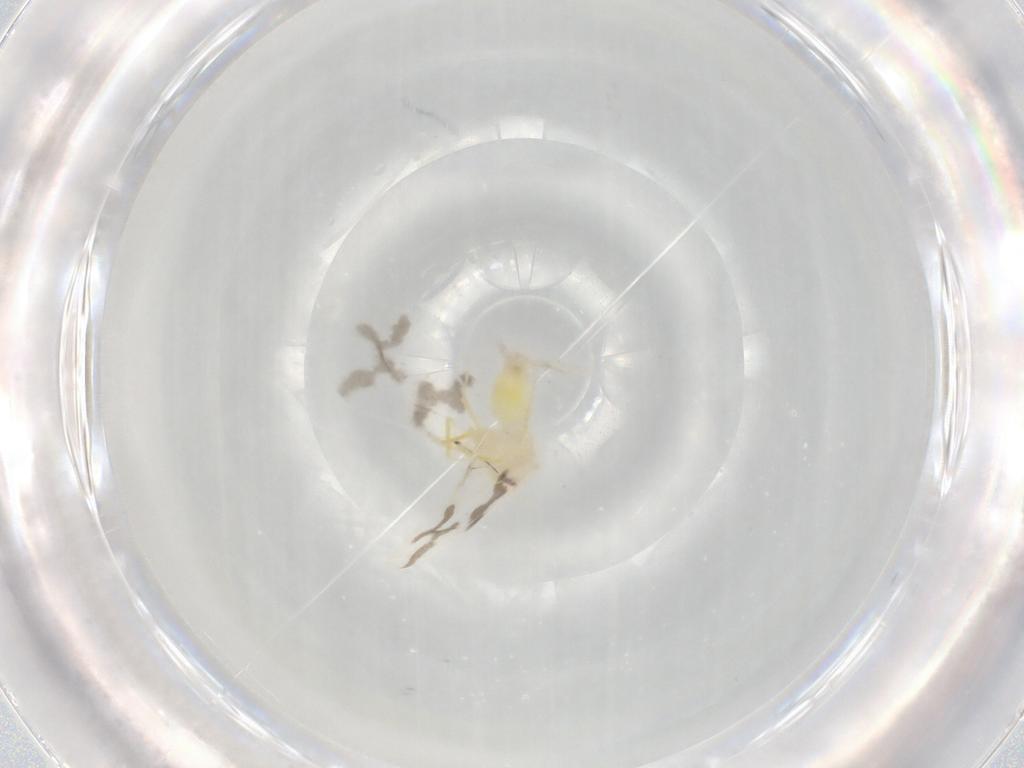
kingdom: Animalia
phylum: Arthropoda
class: Insecta
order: Hemiptera
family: Aleyrodidae
